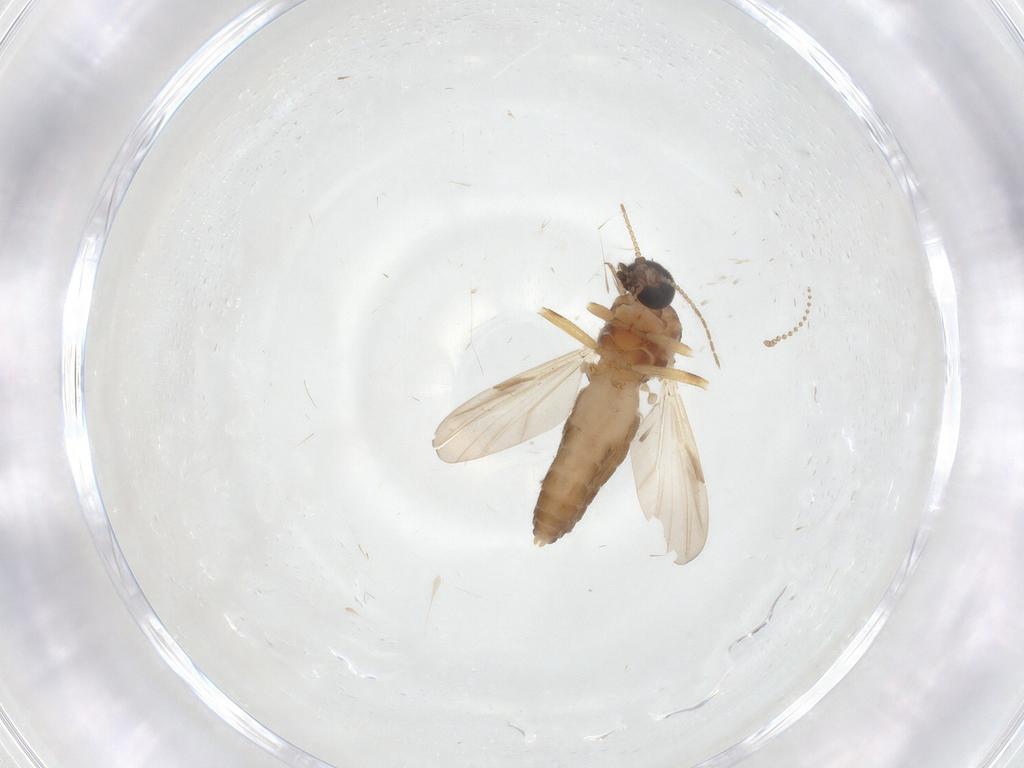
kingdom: Animalia
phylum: Arthropoda
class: Insecta
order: Diptera
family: Ceratopogonidae
